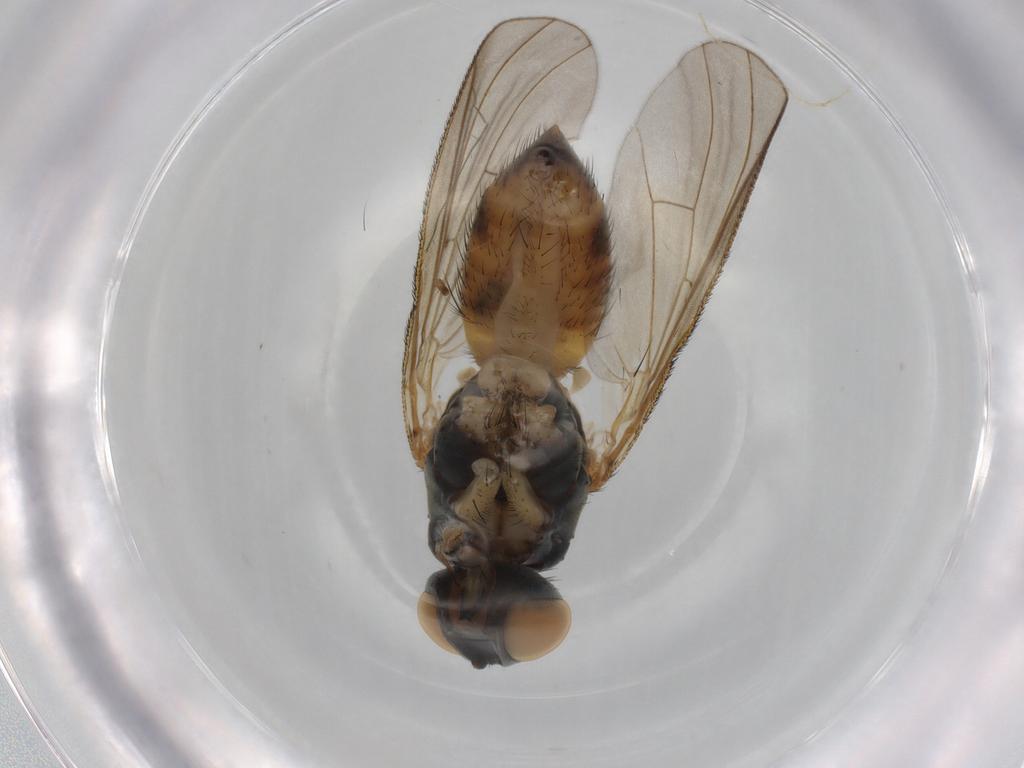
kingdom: Animalia
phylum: Arthropoda
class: Insecta
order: Diptera
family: Muscidae
